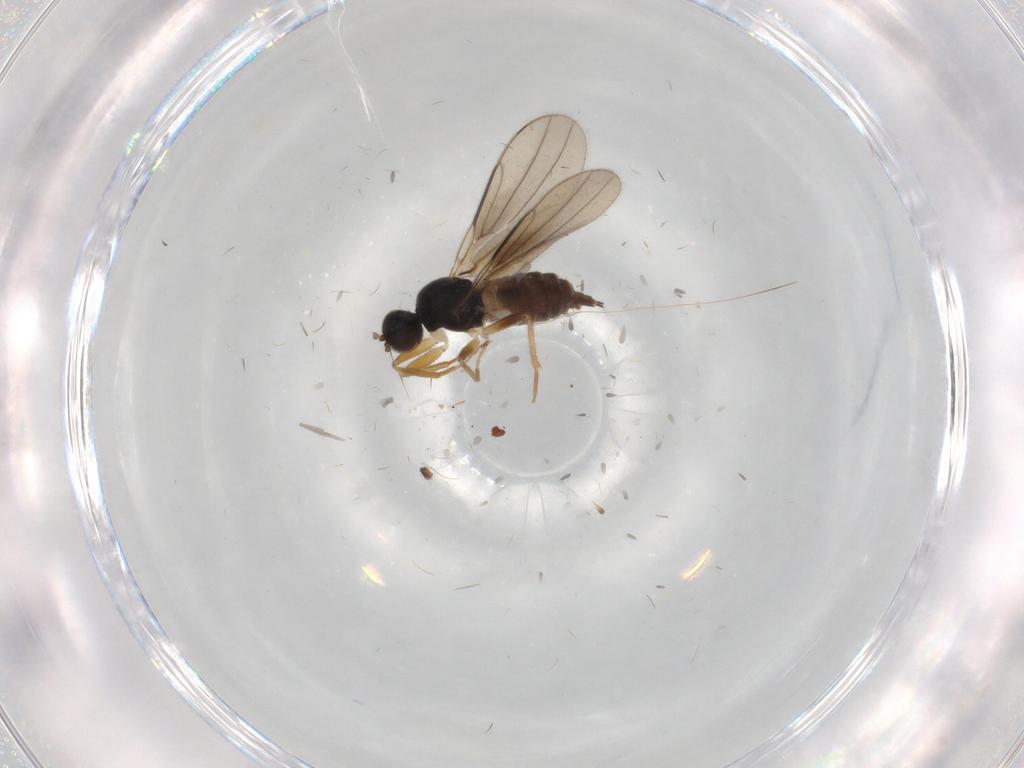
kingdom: Animalia
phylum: Arthropoda
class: Insecta
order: Diptera
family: Hybotidae
